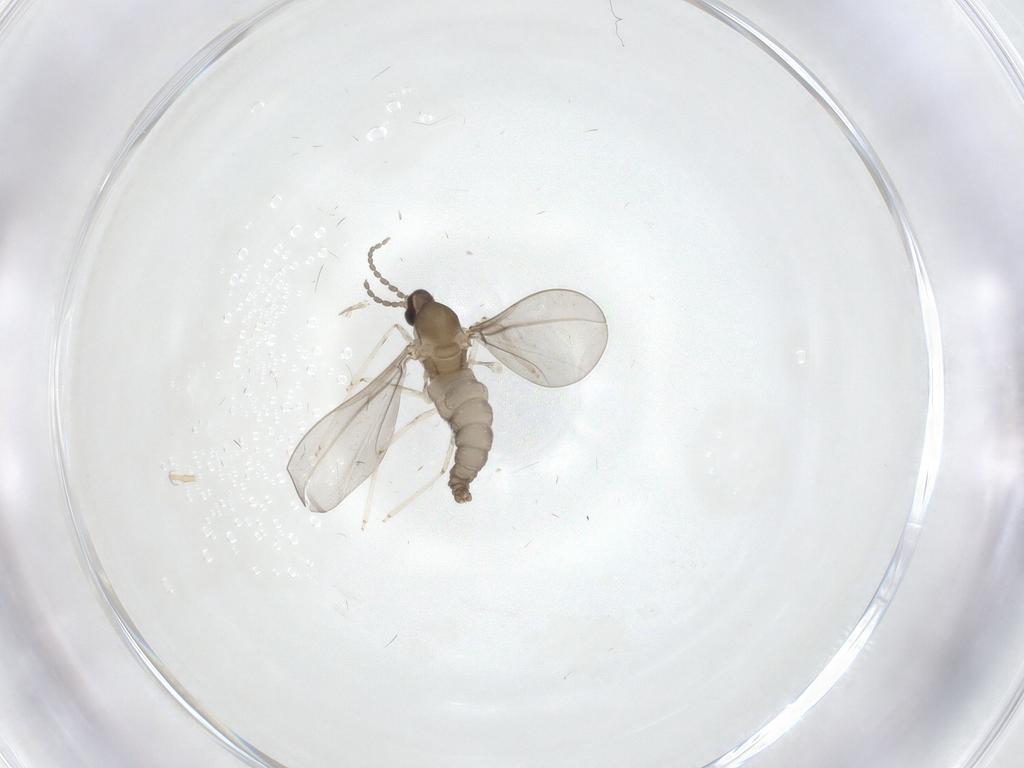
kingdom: Animalia
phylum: Arthropoda
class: Insecta
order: Diptera
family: Cecidomyiidae
